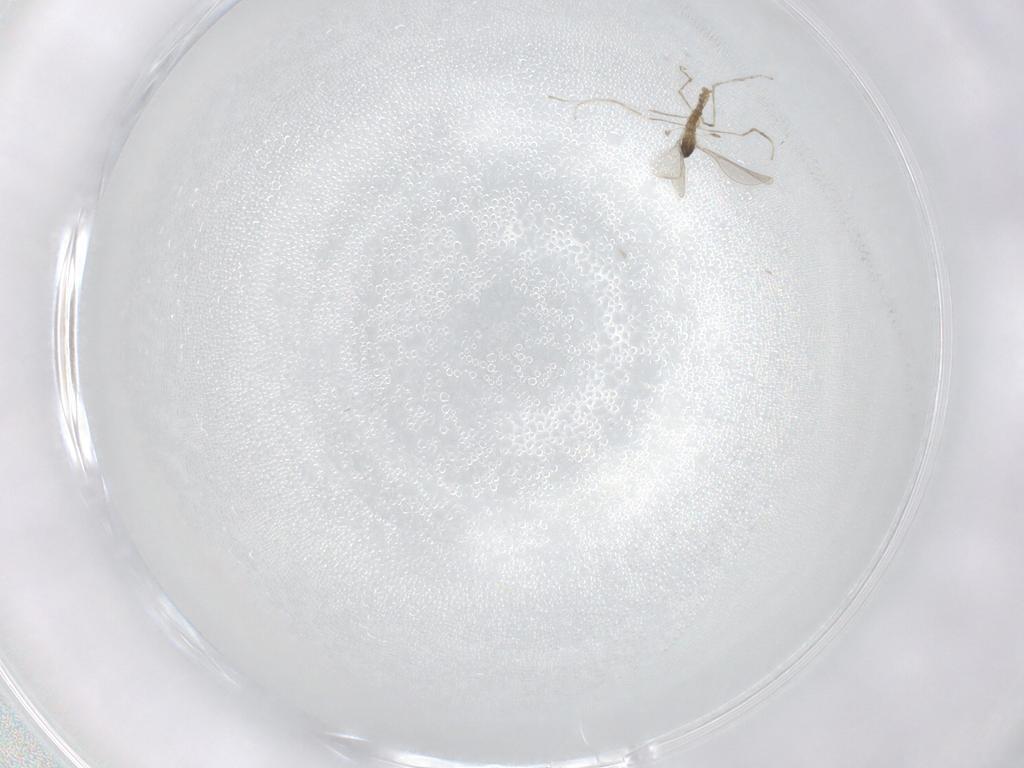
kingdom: Animalia
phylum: Arthropoda
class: Insecta
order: Diptera
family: Cecidomyiidae
